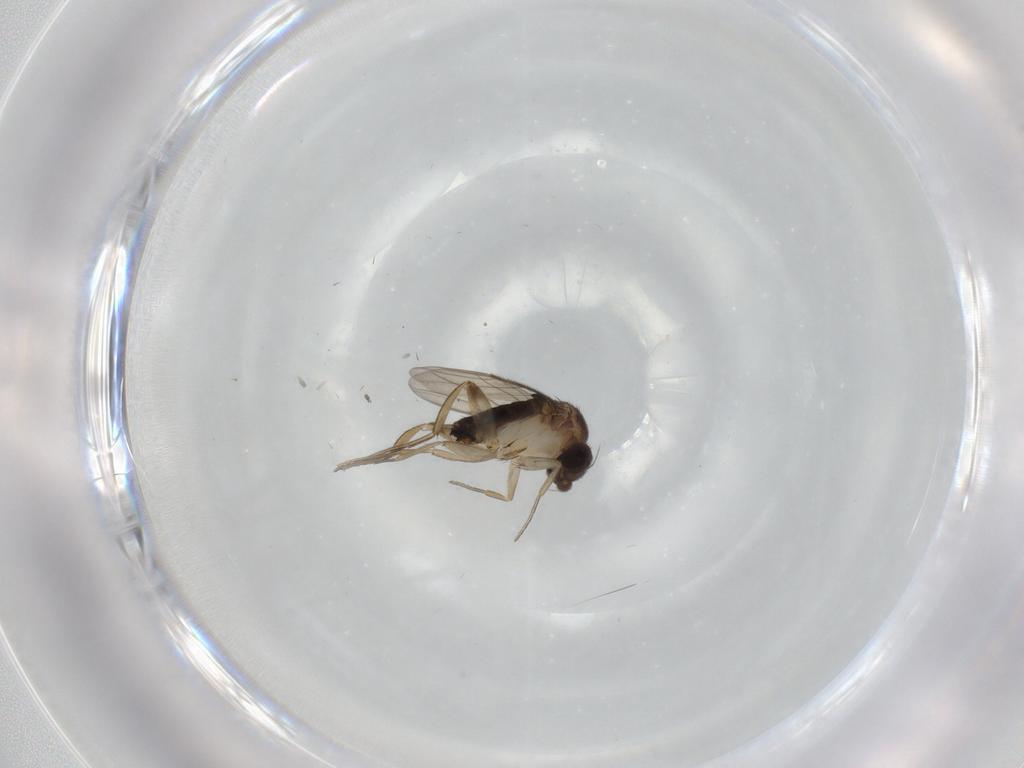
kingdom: Animalia
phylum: Arthropoda
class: Insecta
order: Diptera
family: Phoridae
